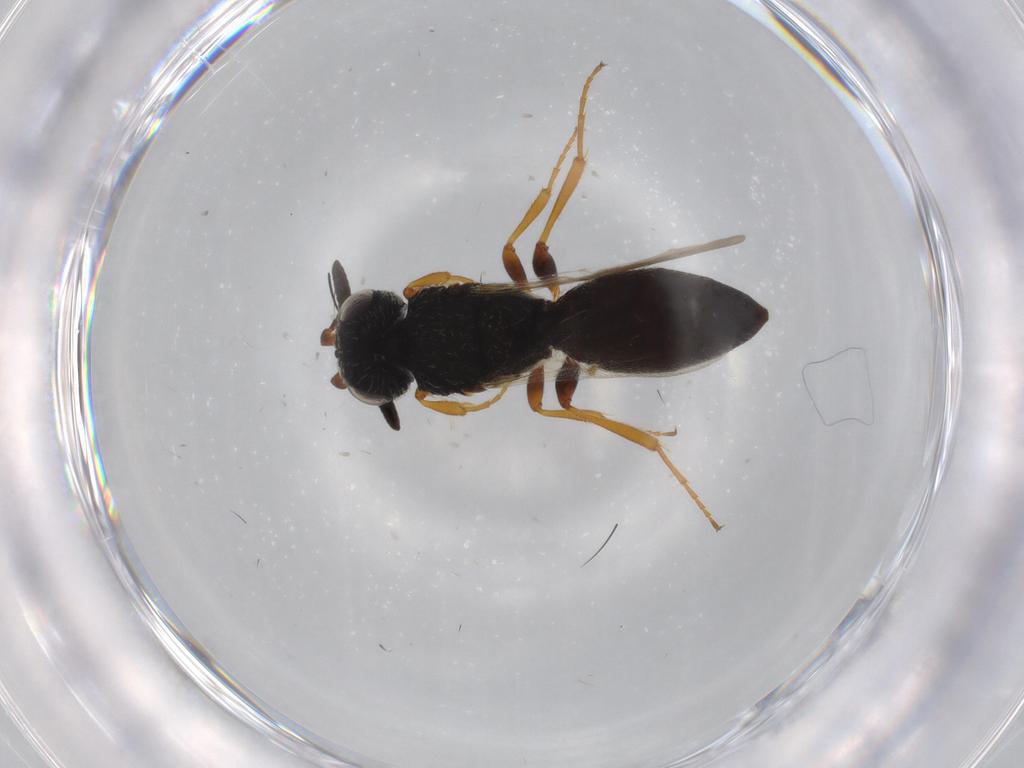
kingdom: Animalia
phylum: Arthropoda
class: Insecta
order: Hymenoptera
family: Scelionidae
